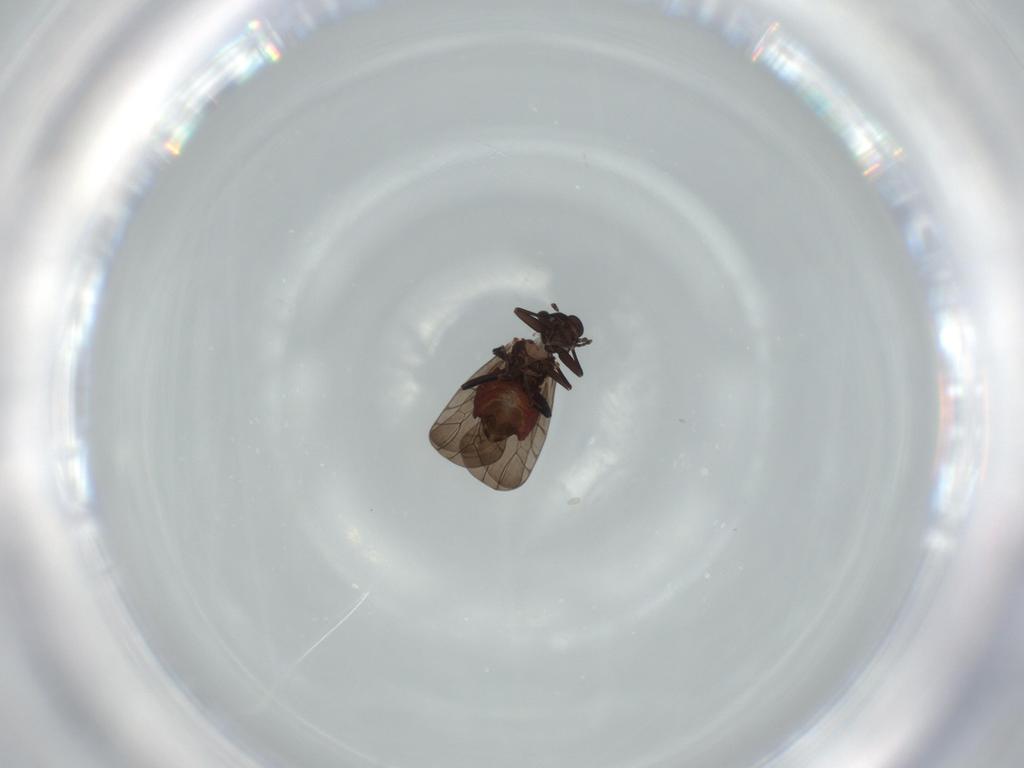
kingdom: Animalia
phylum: Arthropoda
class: Insecta
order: Psocodea
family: Lepidopsocidae
